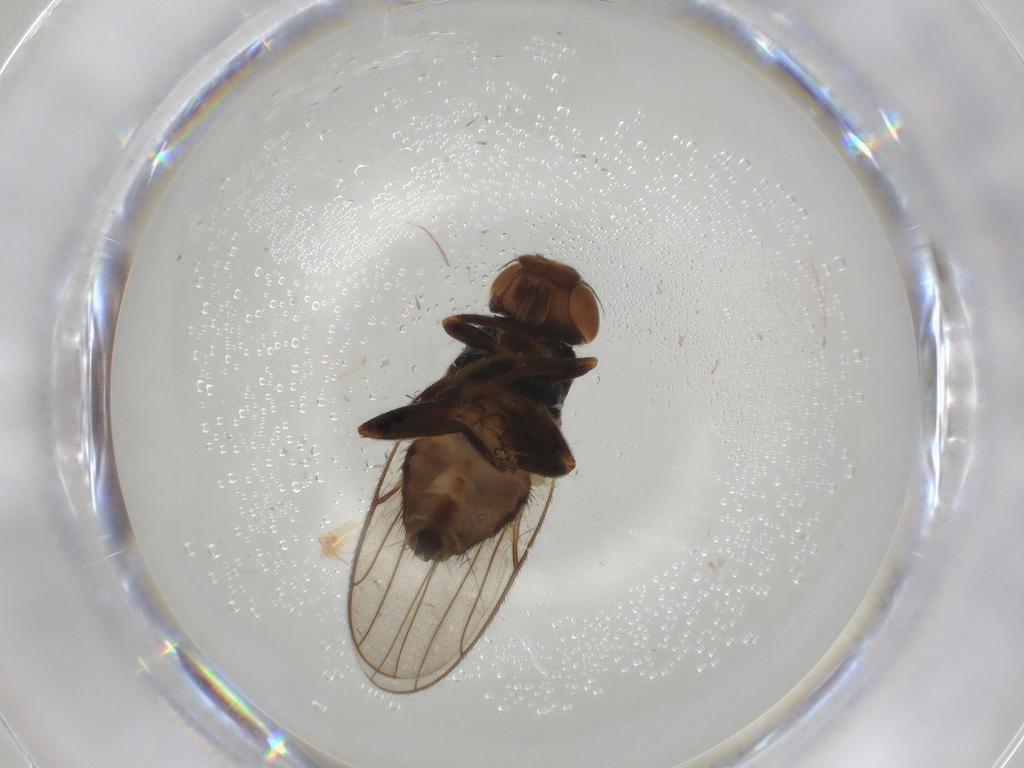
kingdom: Animalia
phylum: Arthropoda
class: Insecta
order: Diptera
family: Chloropidae
